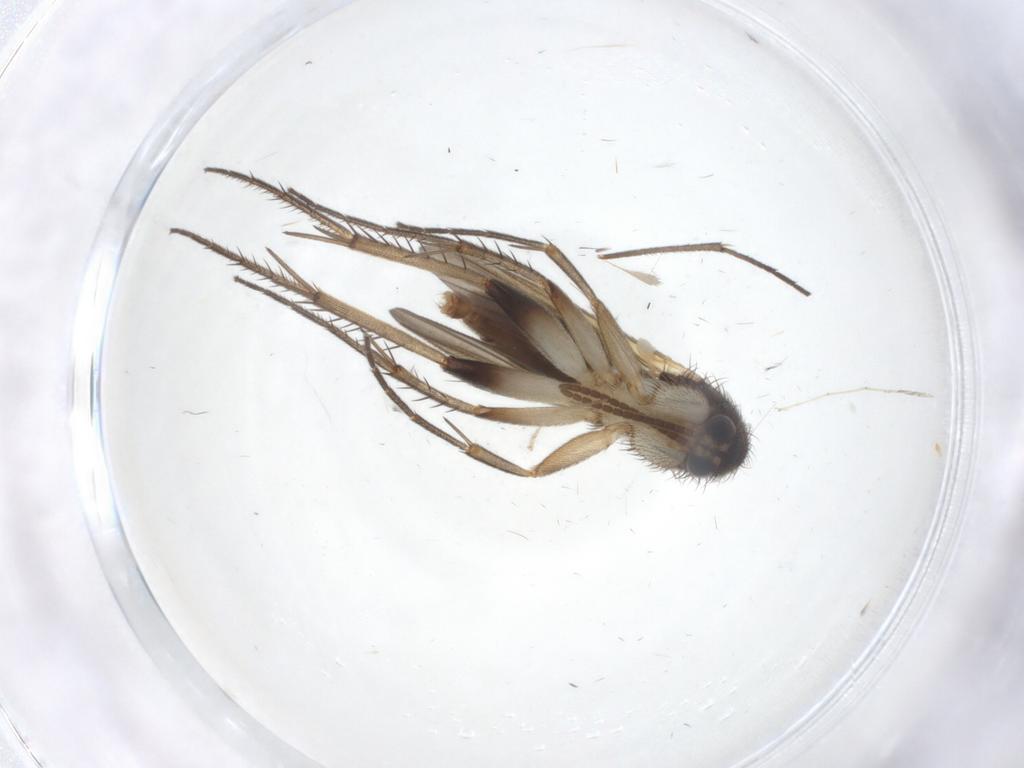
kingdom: Animalia
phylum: Arthropoda
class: Insecta
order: Diptera
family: Mycetophilidae
